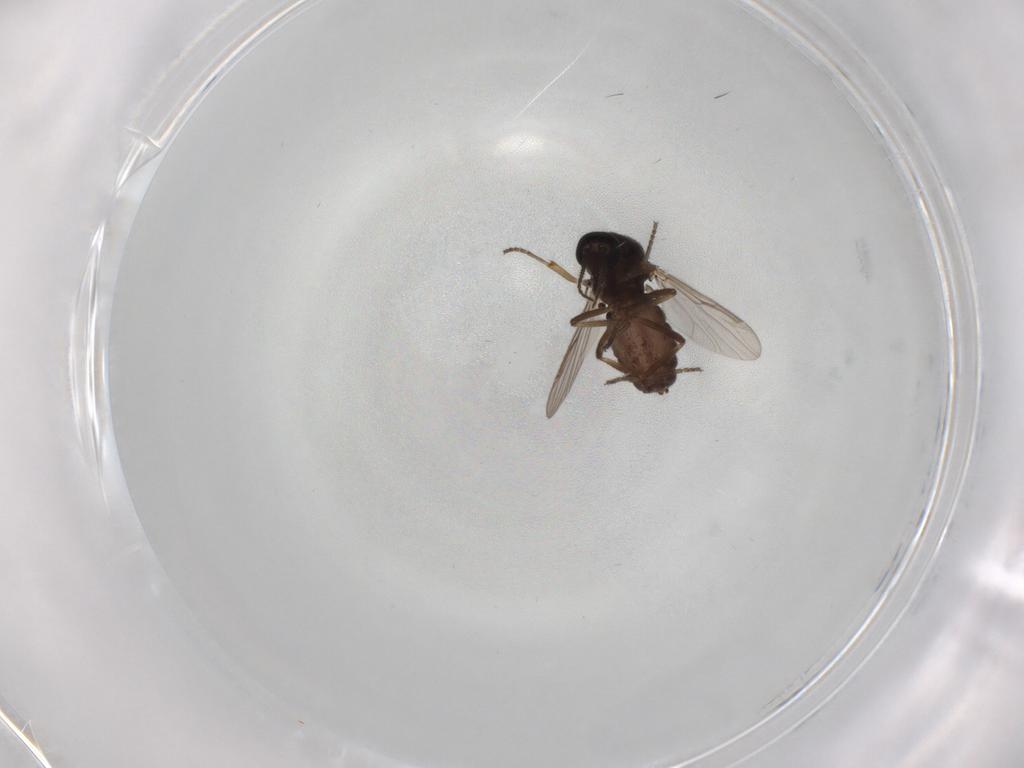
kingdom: Animalia
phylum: Arthropoda
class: Insecta
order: Diptera
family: Ceratopogonidae
